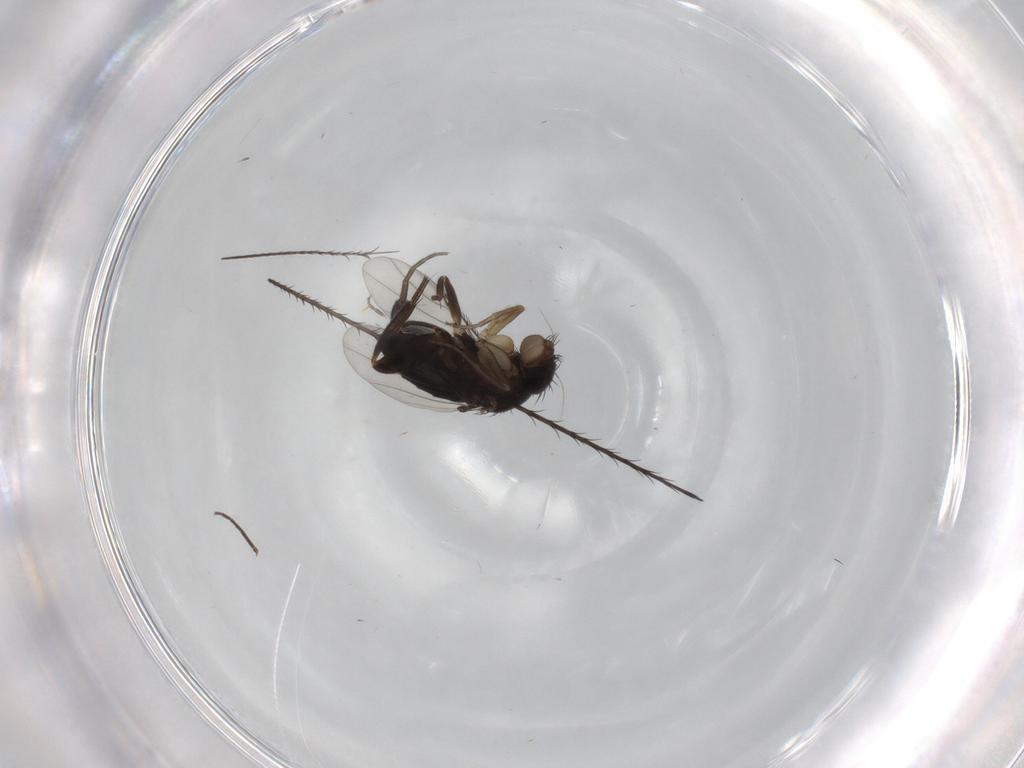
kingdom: Animalia
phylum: Arthropoda
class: Insecta
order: Diptera
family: Phoridae
